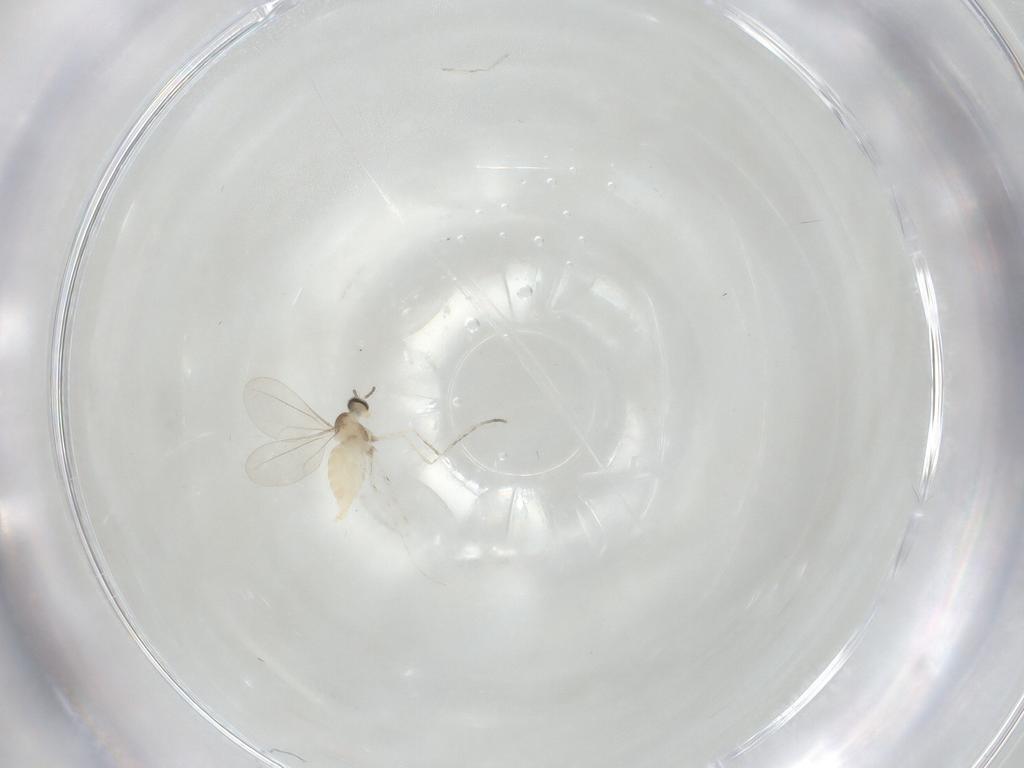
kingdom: Animalia
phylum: Arthropoda
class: Insecta
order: Diptera
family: Cecidomyiidae
